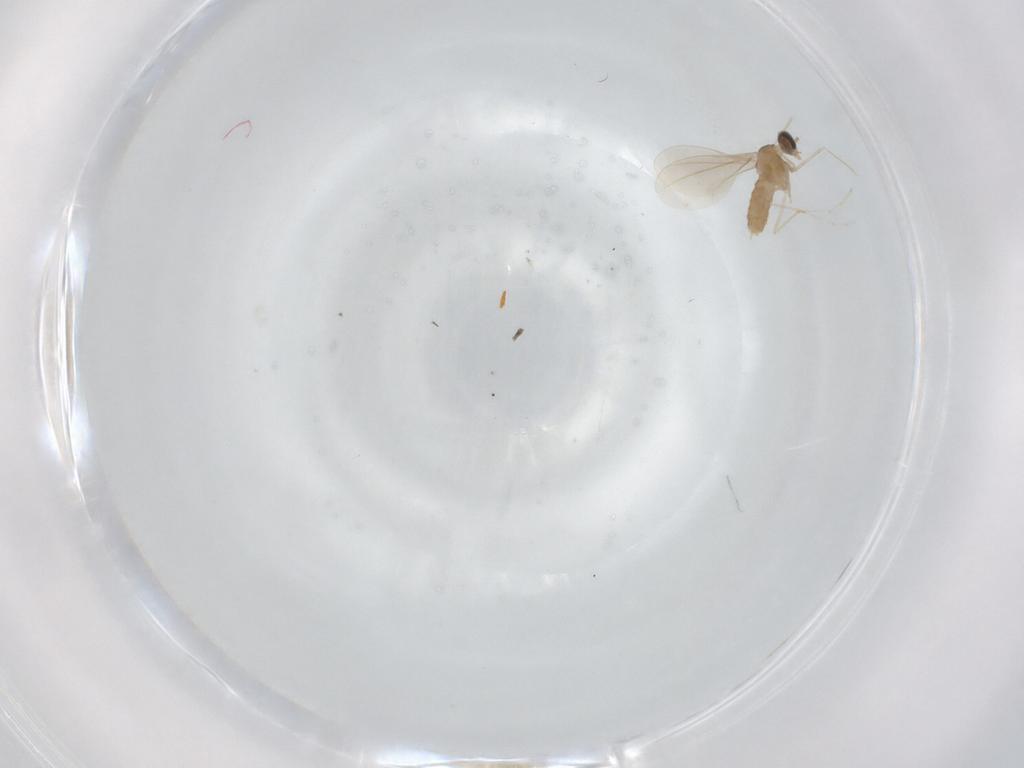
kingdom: Animalia
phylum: Arthropoda
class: Insecta
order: Diptera
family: Cecidomyiidae
